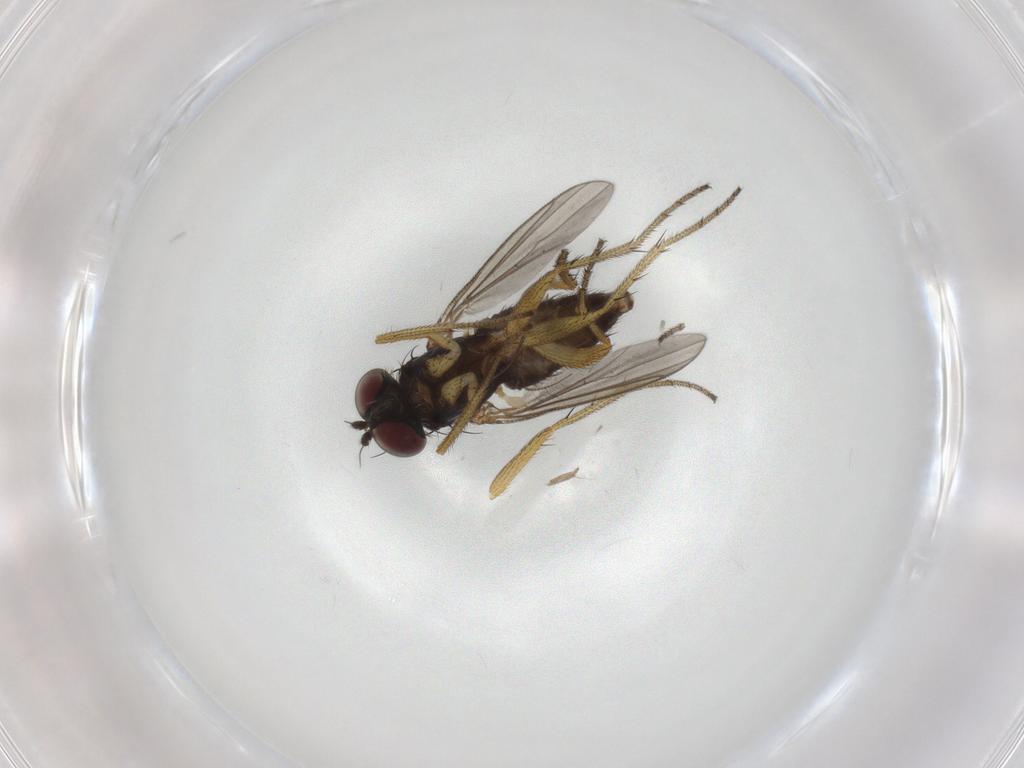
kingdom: Animalia
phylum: Arthropoda
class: Insecta
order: Diptera
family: Dolichopodidae
